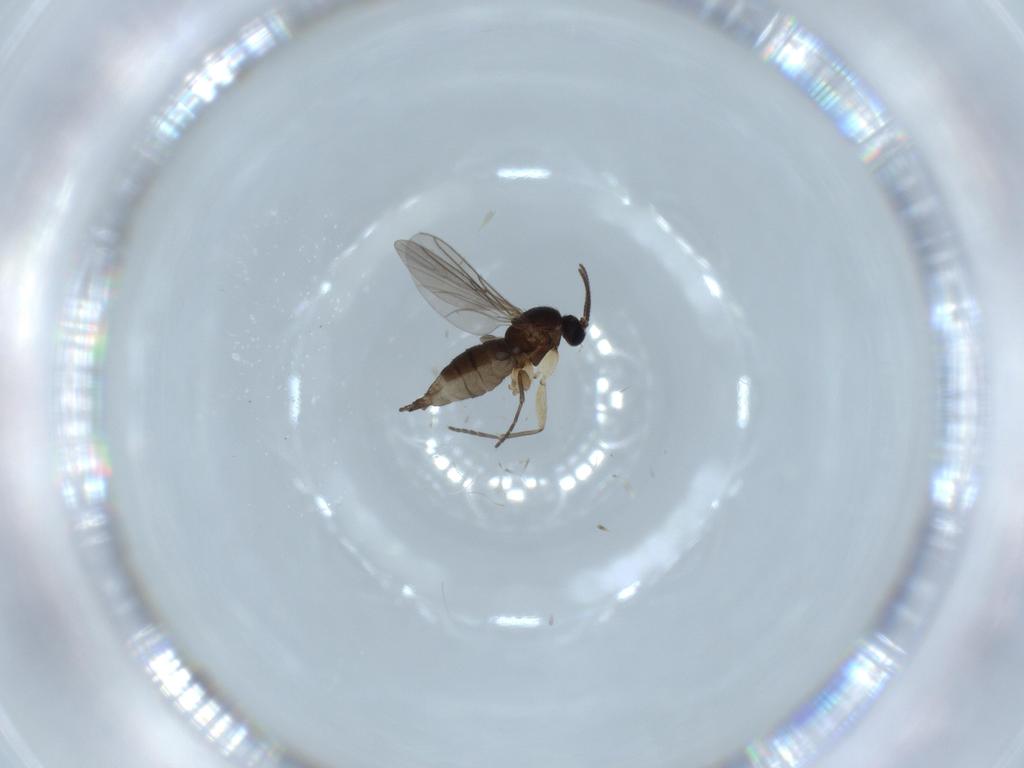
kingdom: Animalia
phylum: Arthropoda
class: Insecta
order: Diptera
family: Sciaridae
